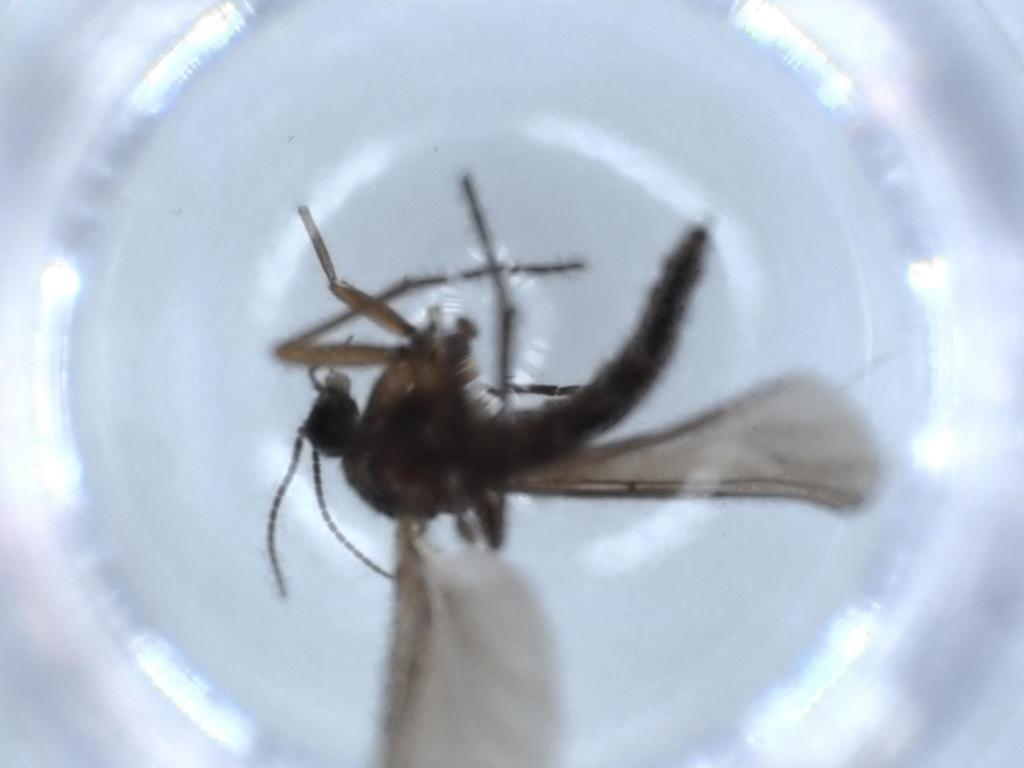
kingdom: Animalia
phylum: Arthropoda
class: Insecta
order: Diptera
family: Sciaridae
